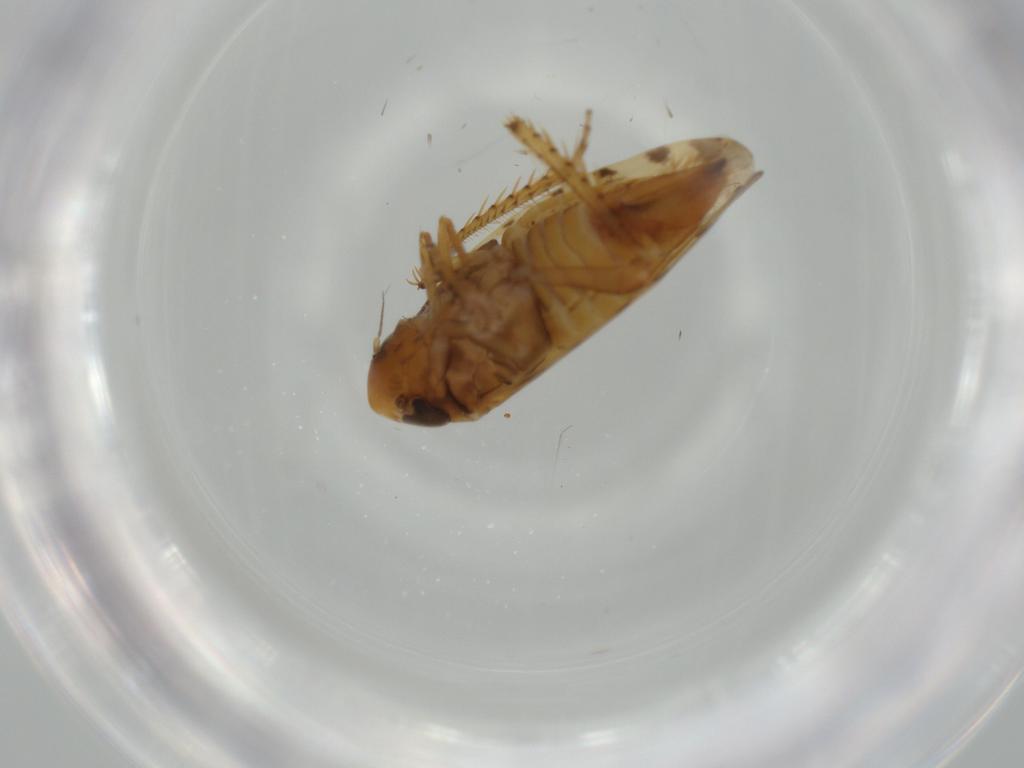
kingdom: Animalia
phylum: Arthropoda
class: Insecta
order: Hemiptera
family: Cicadellidae
